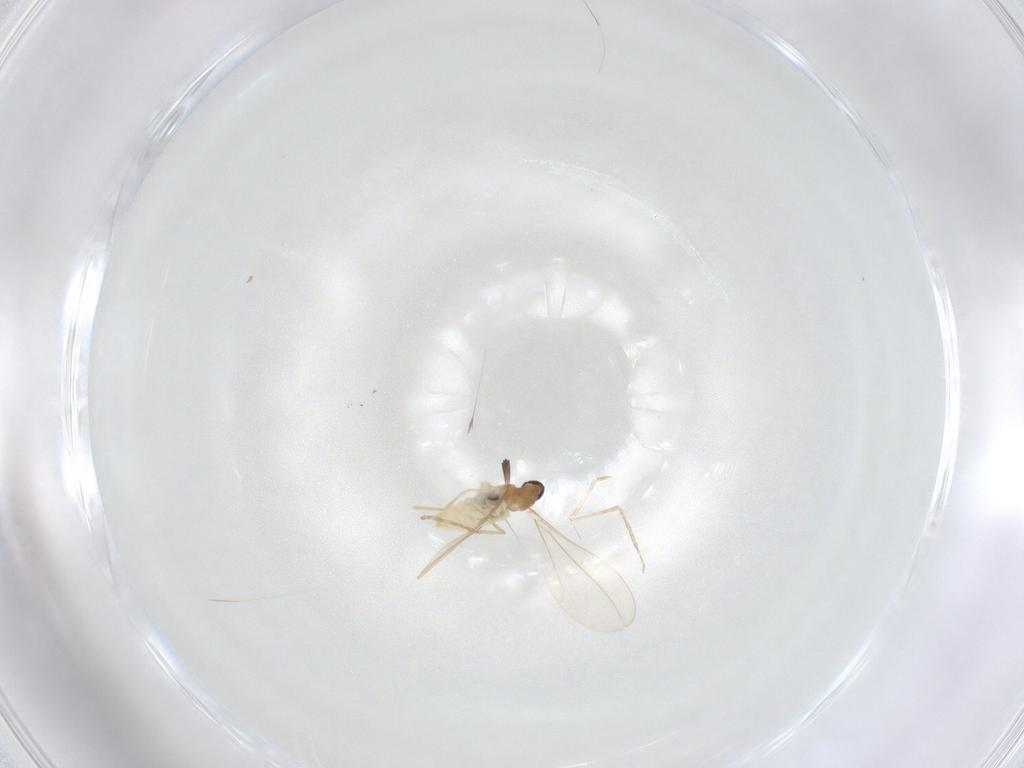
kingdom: Animalia
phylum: Arthropoda
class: Insecta
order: Diptera
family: Cecidomyiidae
